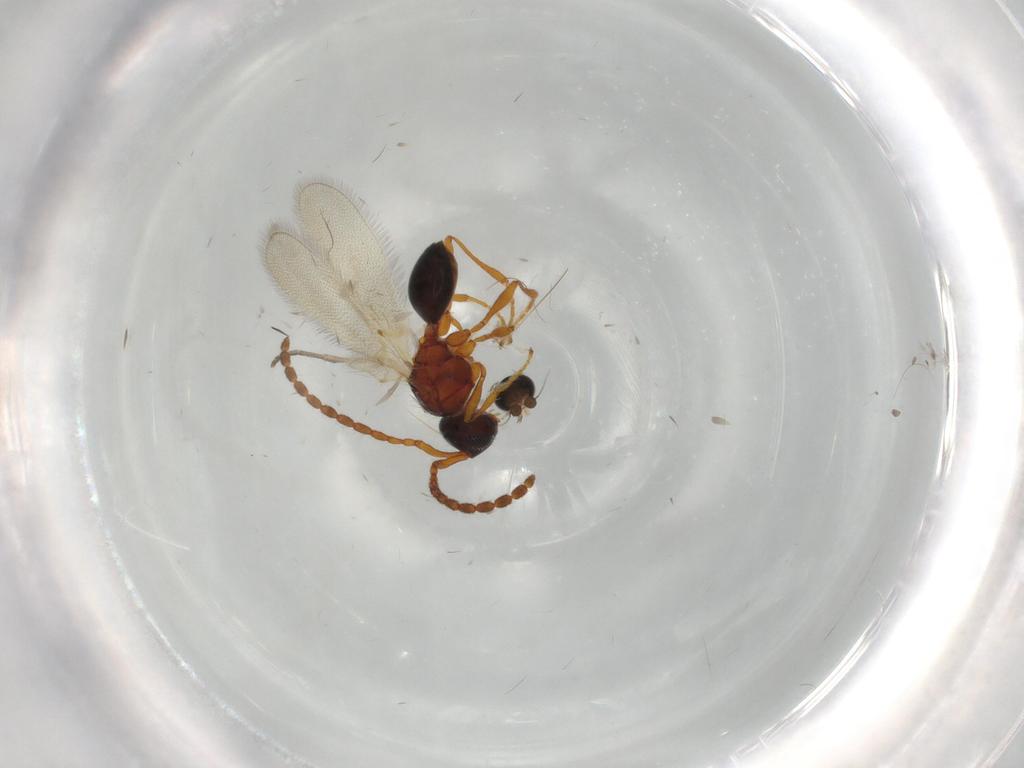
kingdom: Animalia
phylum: Arthropoda
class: Insecta
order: Hymenoptera
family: Diapriidae
